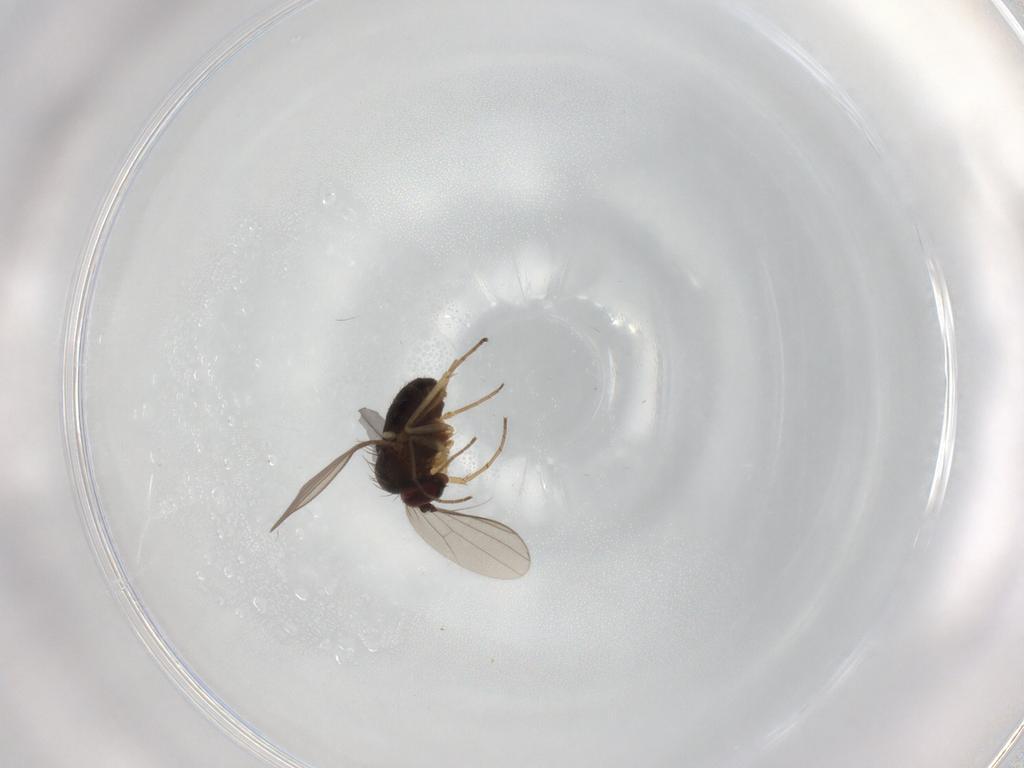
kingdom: Animalia
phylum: Arthropoda
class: Insecta
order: Diptera
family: Dolichopodidae
